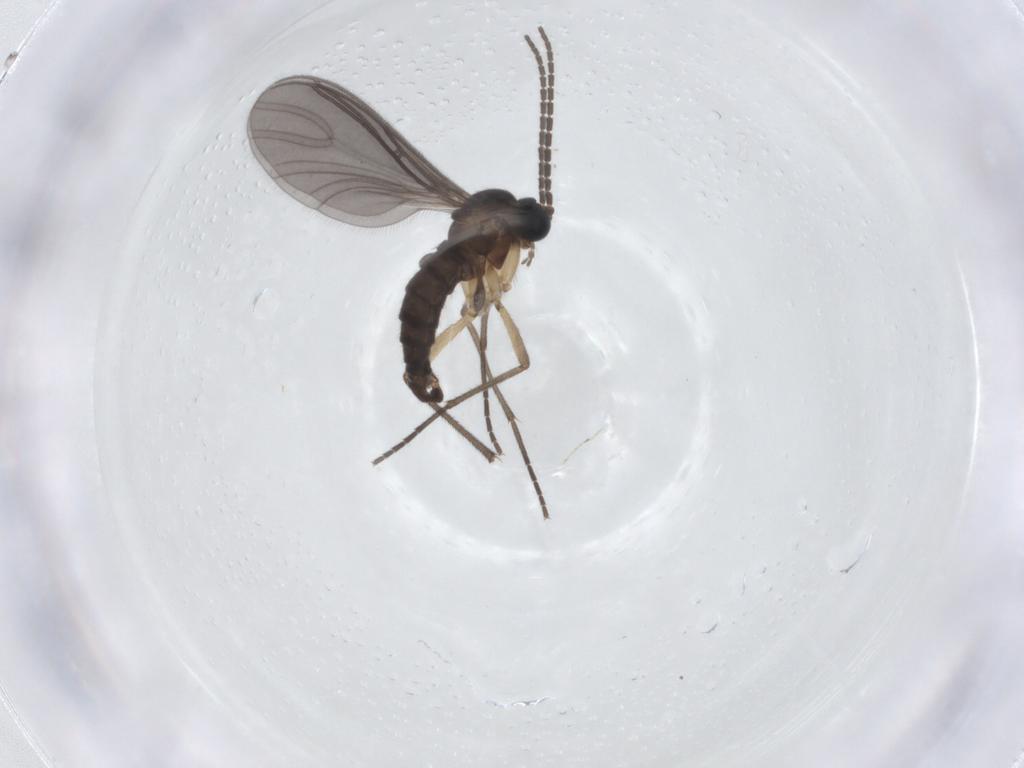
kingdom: Animalia
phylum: Arthropoda
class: Insecta
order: Diptera
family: Sciaridae
